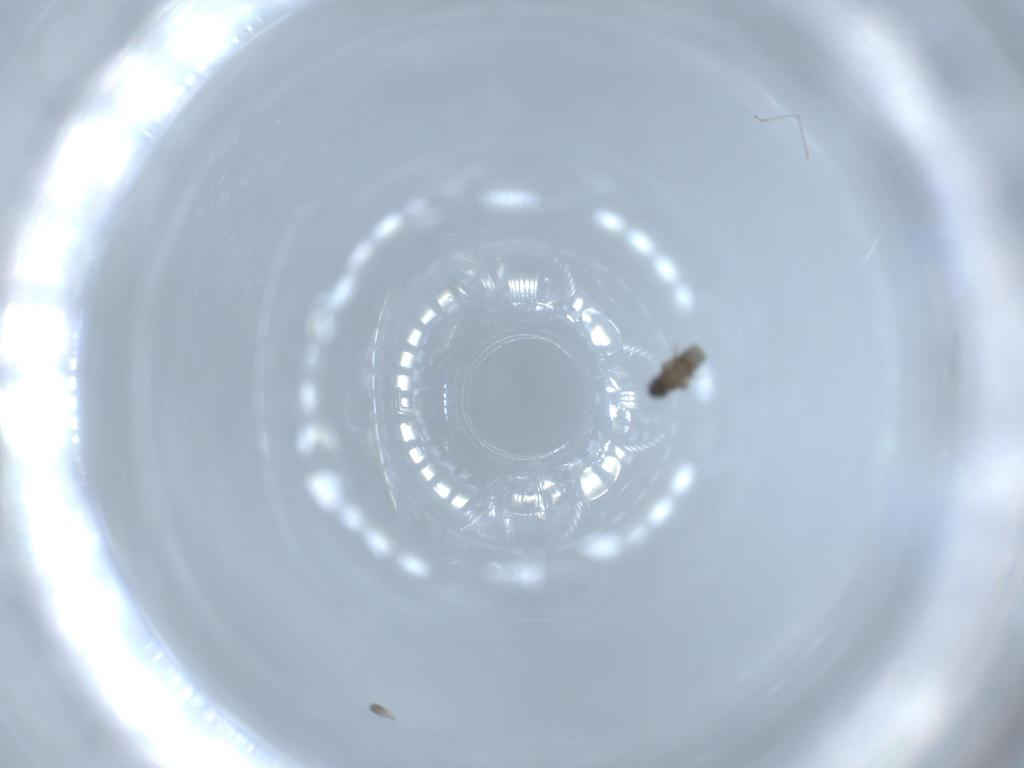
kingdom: Animalia
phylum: Arthropoda
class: Insecta
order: Diptera
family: Cecidomyiidae
